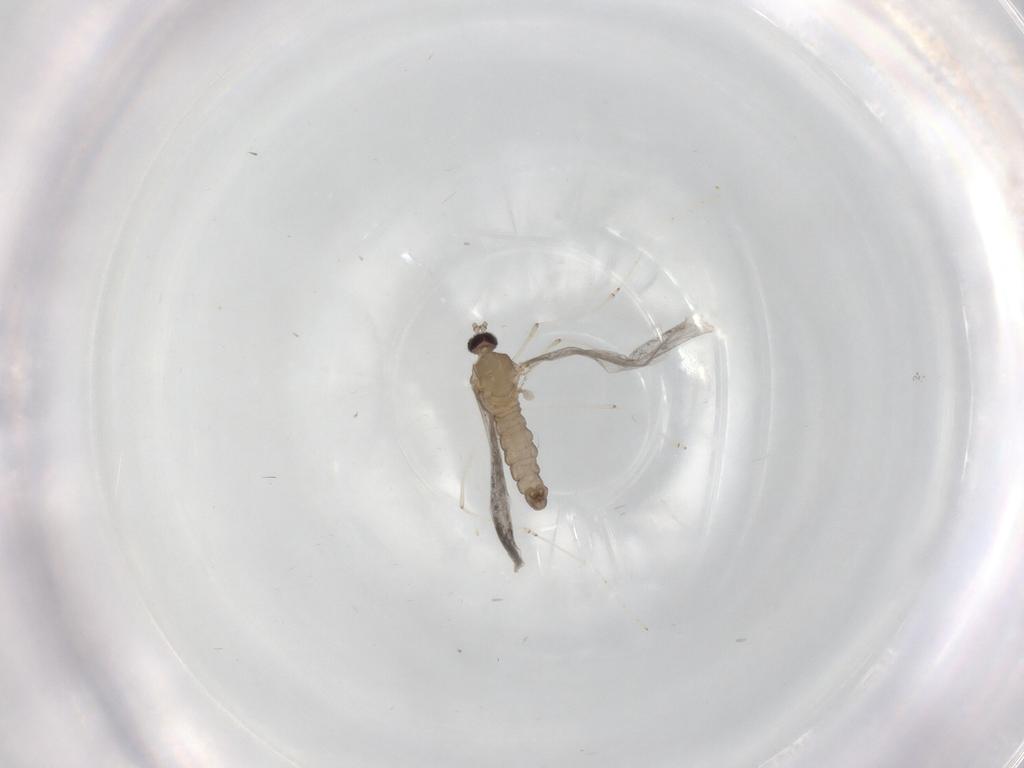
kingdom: Animalia
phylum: Arthropoda
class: Insecta
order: Diptera
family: Cecidomyiidae
